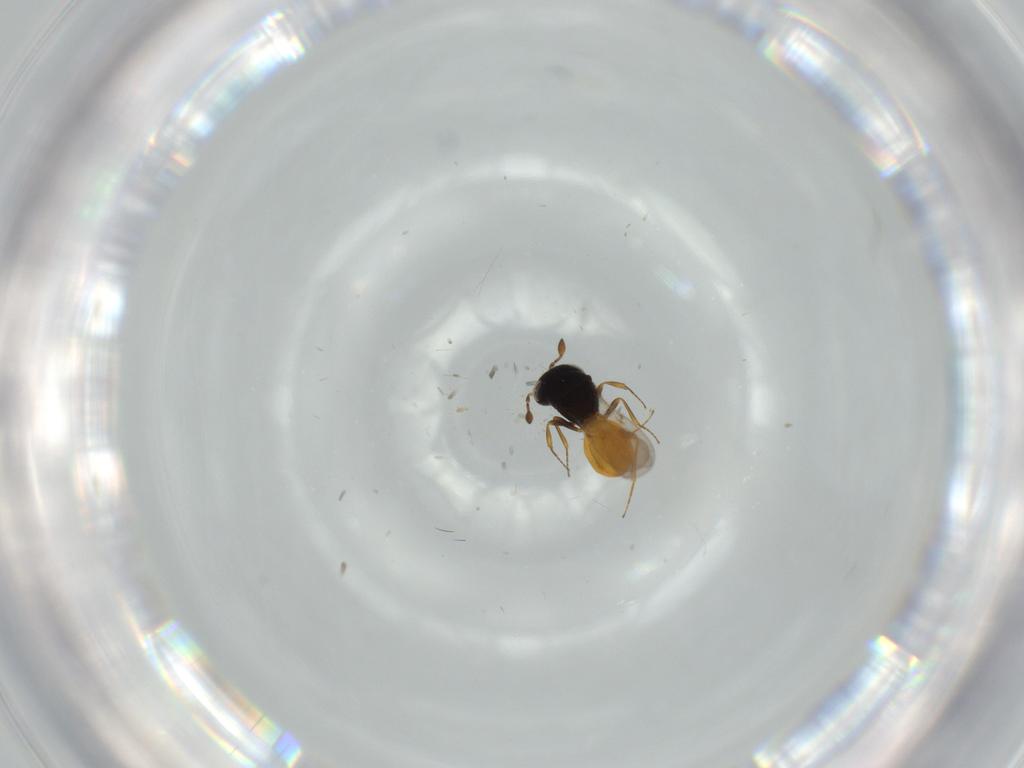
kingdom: Animalia
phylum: Arthropoda
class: Insecta
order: Hymenoptera
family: Scelionidae
